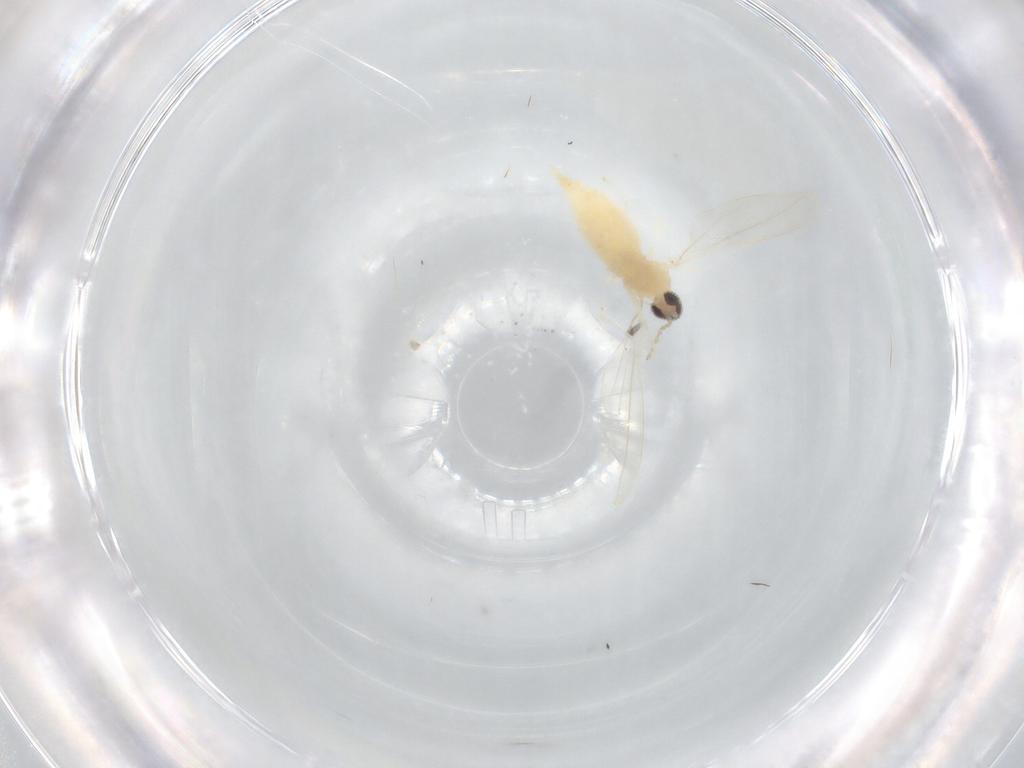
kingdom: Animalia
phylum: Arthropoda
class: Insecta
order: Diptera
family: Cecidomyiidae
